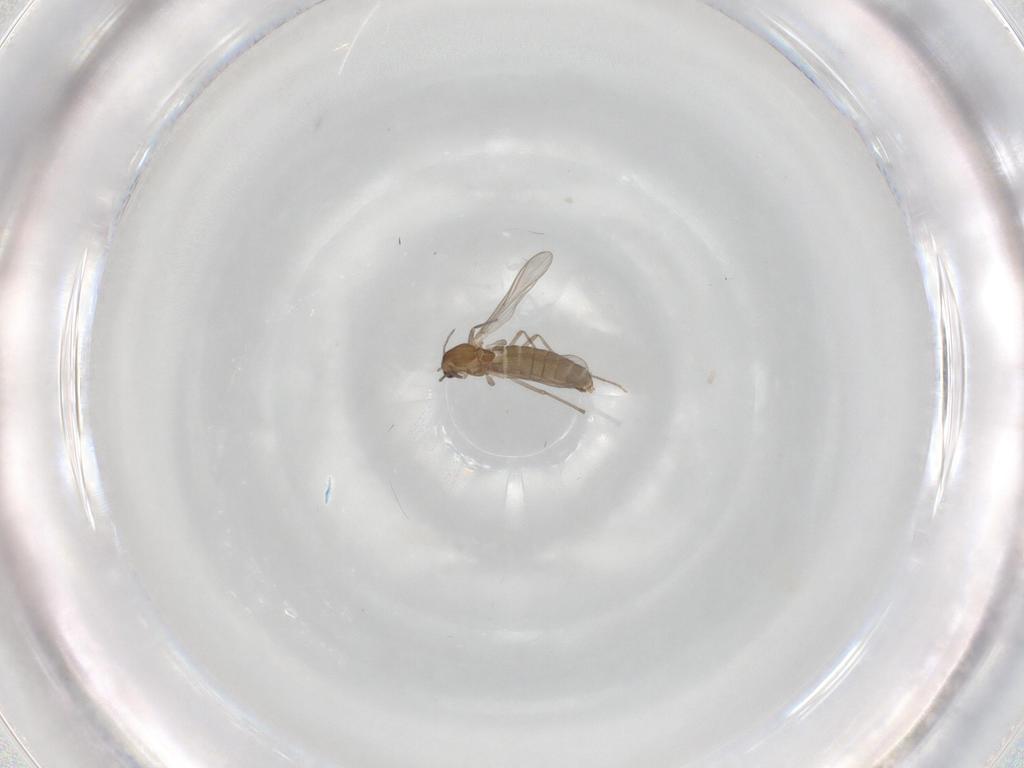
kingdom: Animalia
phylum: Arthropoda
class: Insecta
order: Diptera
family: Chironomidae
